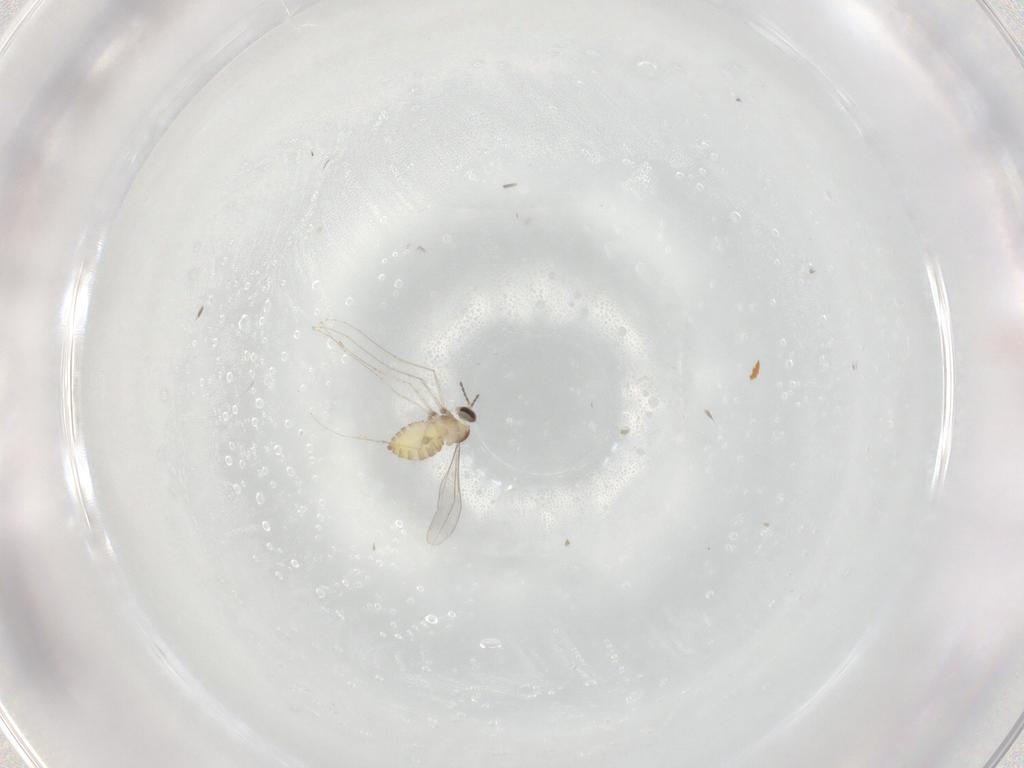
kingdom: Animalia
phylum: Arthropoda
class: Insecta
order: Diptera
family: Cecidomyiidae
